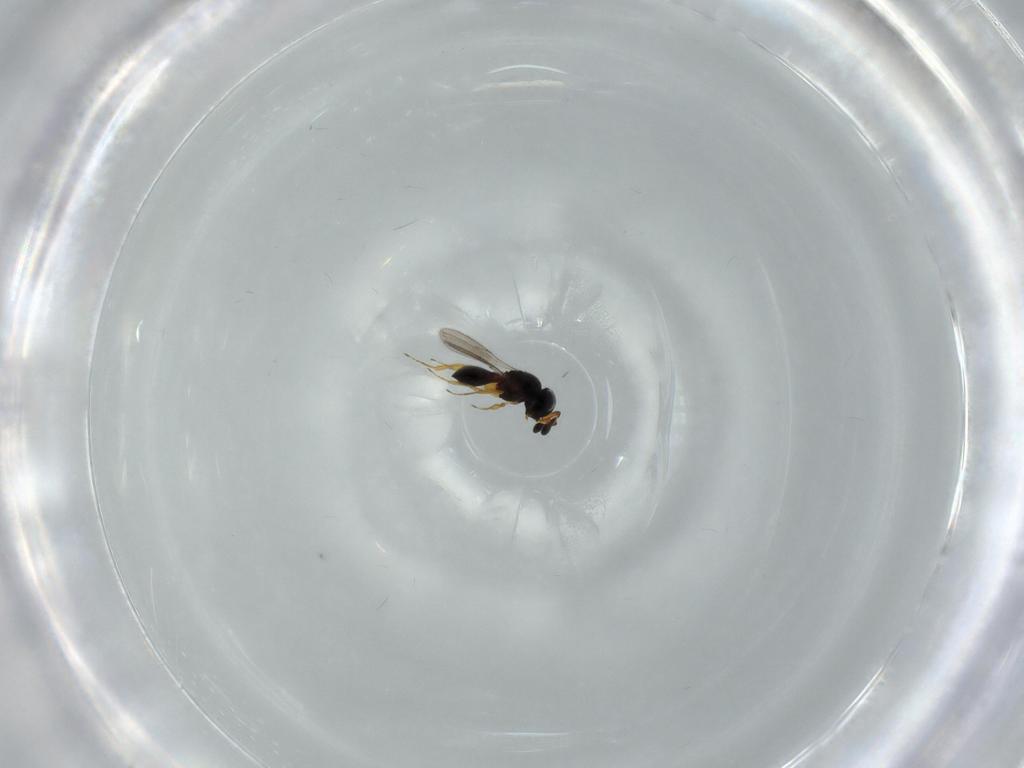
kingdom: Animalia
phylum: Arthropoda
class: Insecta
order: Hymenoptera
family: Scelionidae
